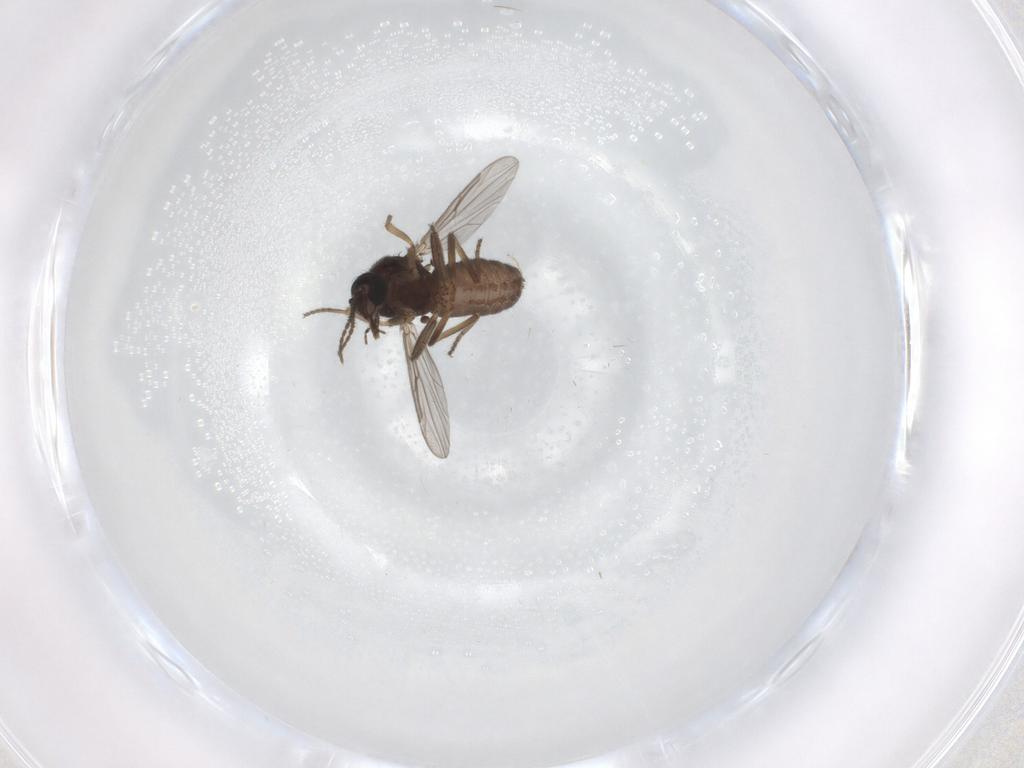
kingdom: Animalia
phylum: Arthropoda
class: Insecta
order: Diptera
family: Ceratopogonidae
